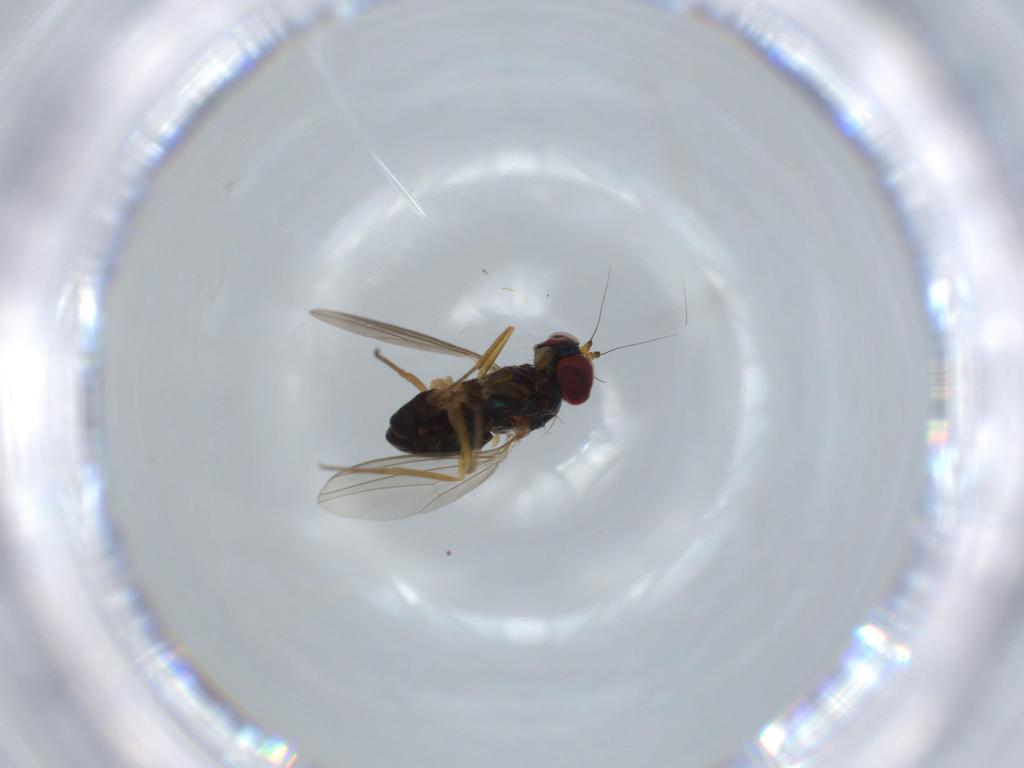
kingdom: Animalia
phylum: Arthropoda
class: Insecta
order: Diptera
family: Dolichopodidae
